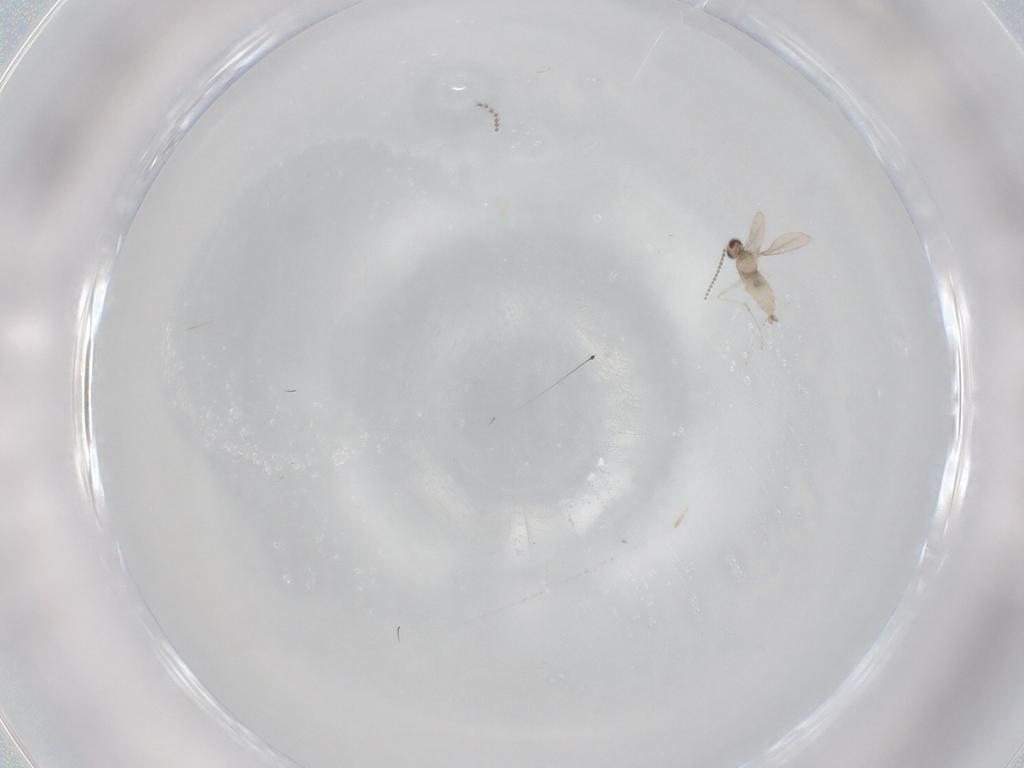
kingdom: Animalia
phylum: Arthropoda
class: Insecta
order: Diptera
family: Cecidomyiidae
